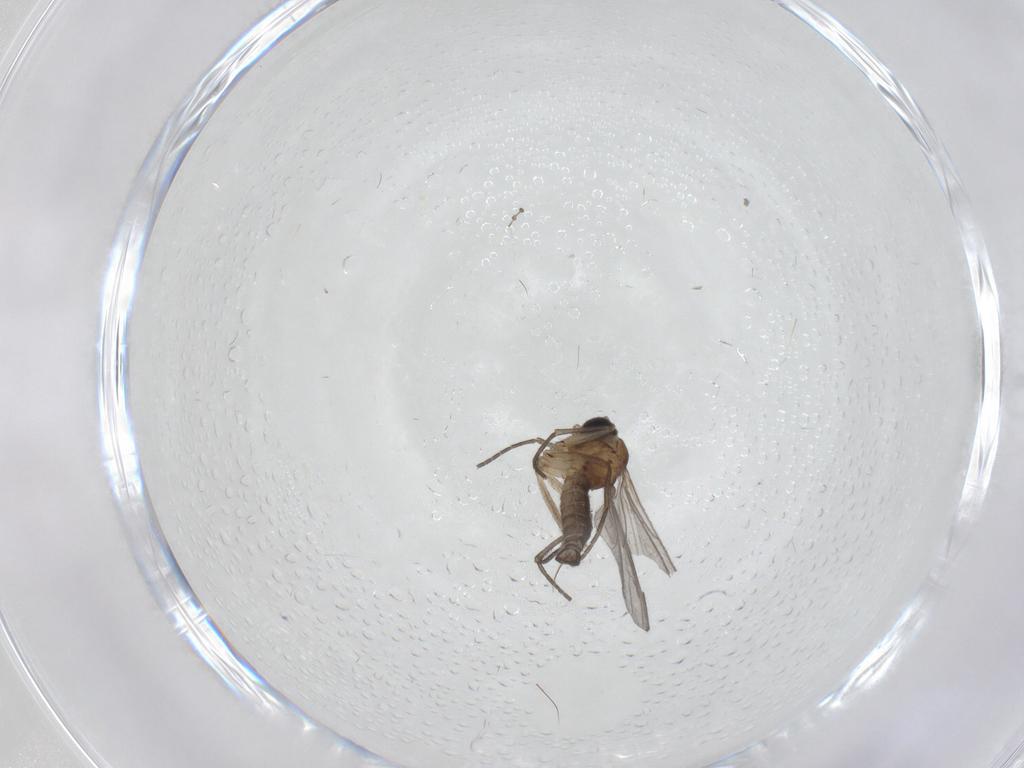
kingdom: Animalia
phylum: Arthropoda
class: Insecta
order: Diptera
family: Cecidomyiidae
